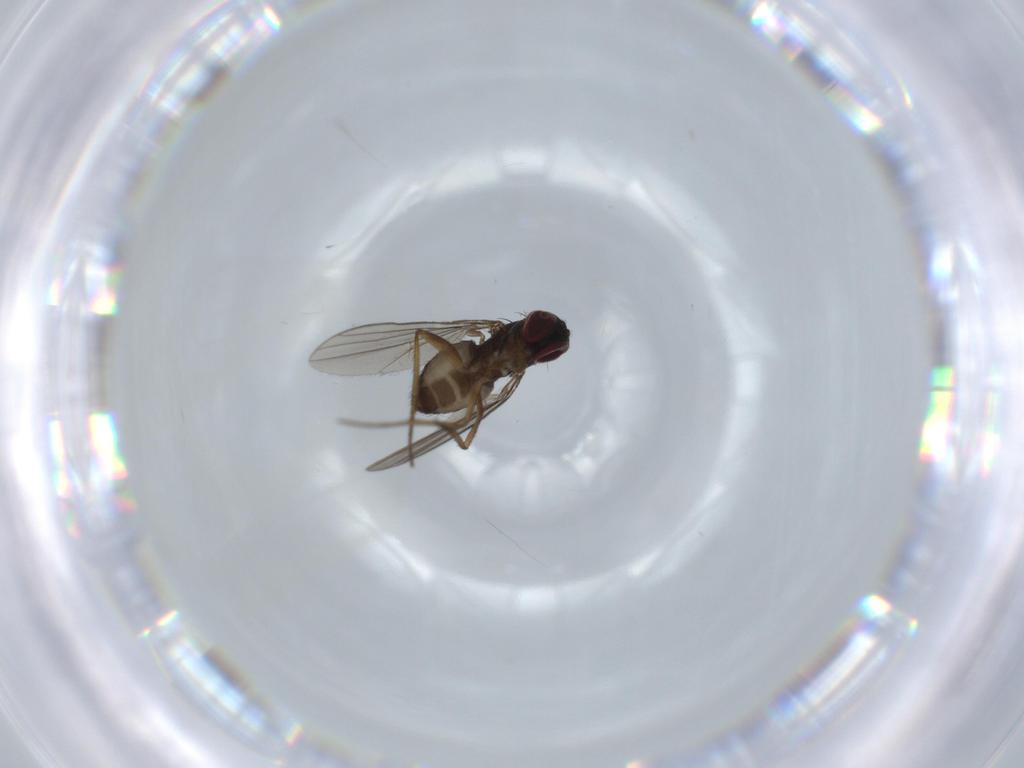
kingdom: Animalia
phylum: Arthropoda
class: Insecta
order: Diptera
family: Dolichopodidae
